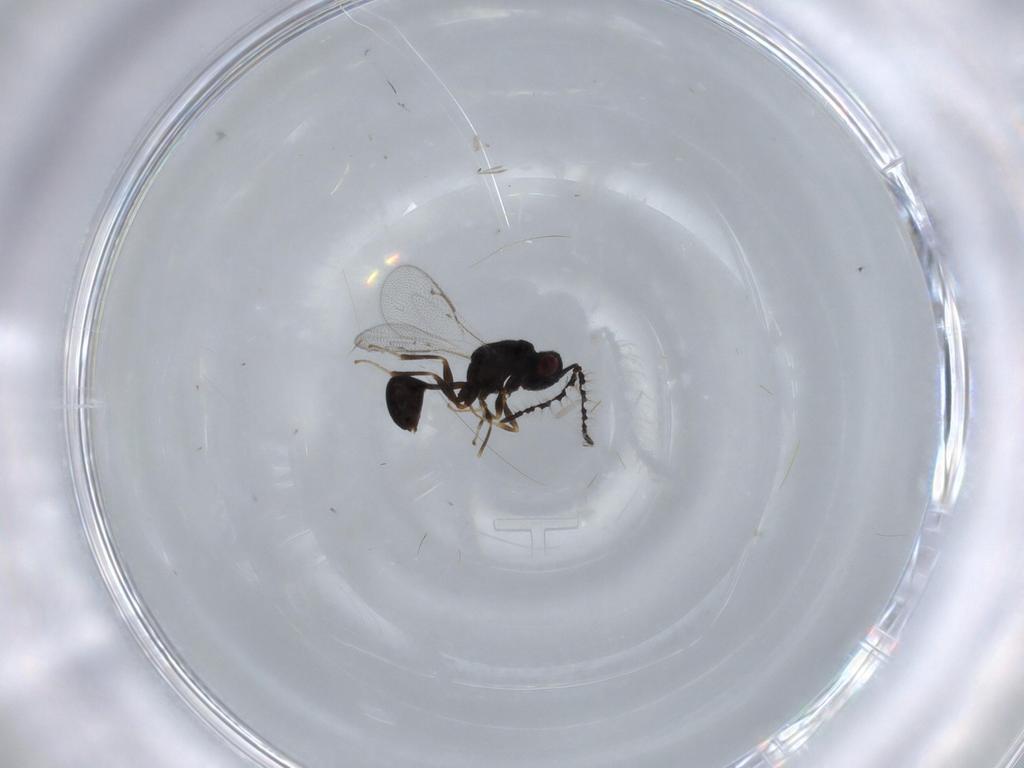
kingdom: Animalia
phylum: Arthropoda
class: Insecta
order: Hymenoptera
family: Eurytomidae
